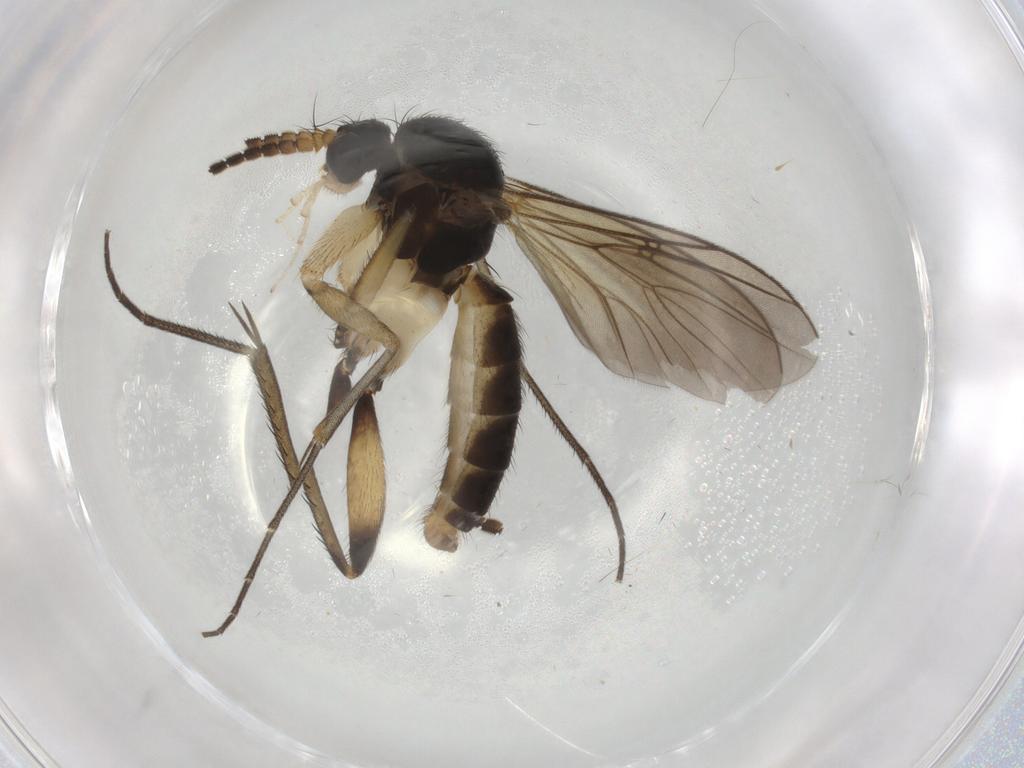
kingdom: Animalia
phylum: Arthropoda
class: Insecta
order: Diptera
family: Mycetophilidae
